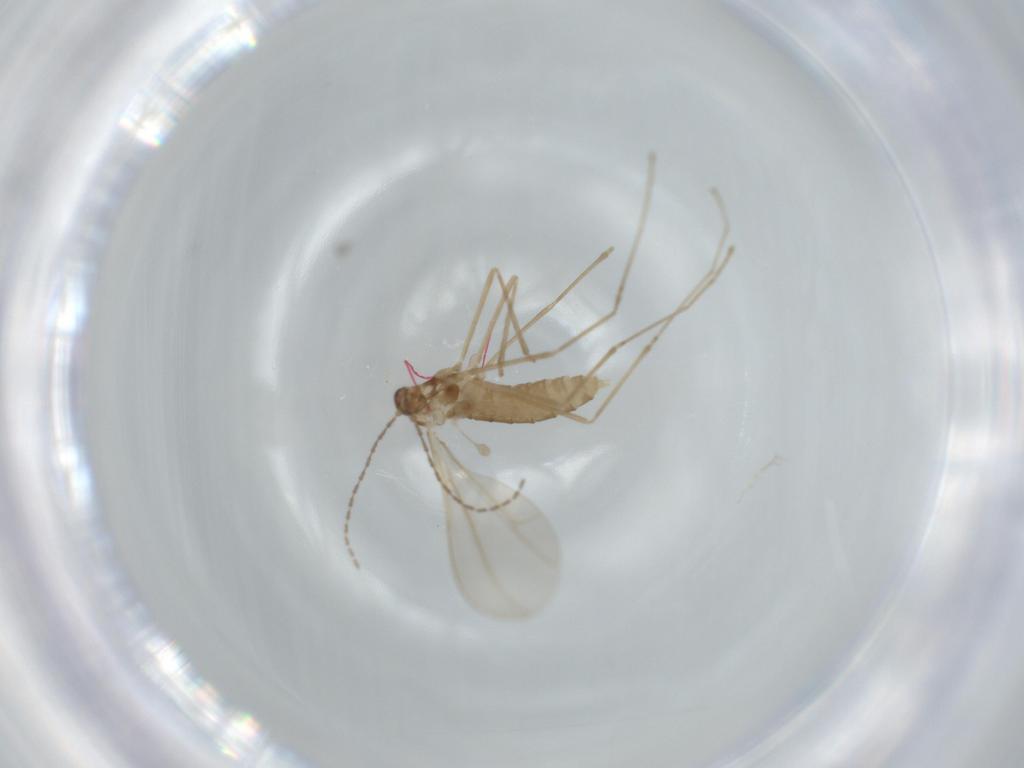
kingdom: Animalia
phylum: Arthropoda
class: Insecta
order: Diptera
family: Cecidomyiidae
